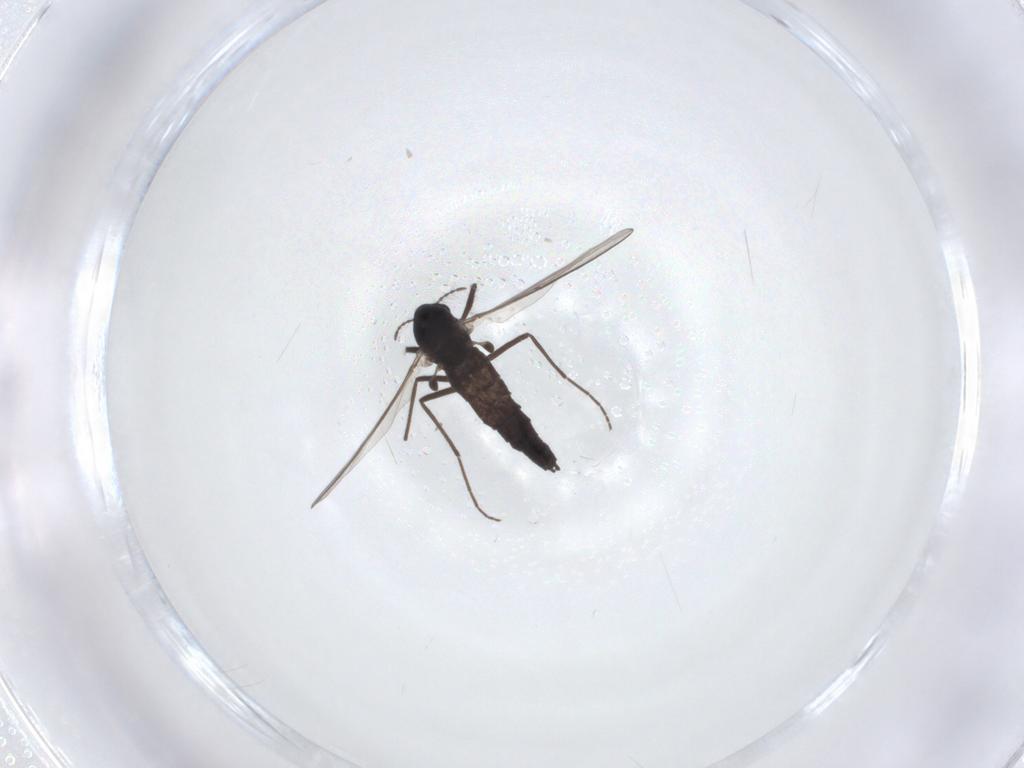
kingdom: Animalia
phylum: Arthropoda
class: Insecta
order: Diptera
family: Chironomidae
